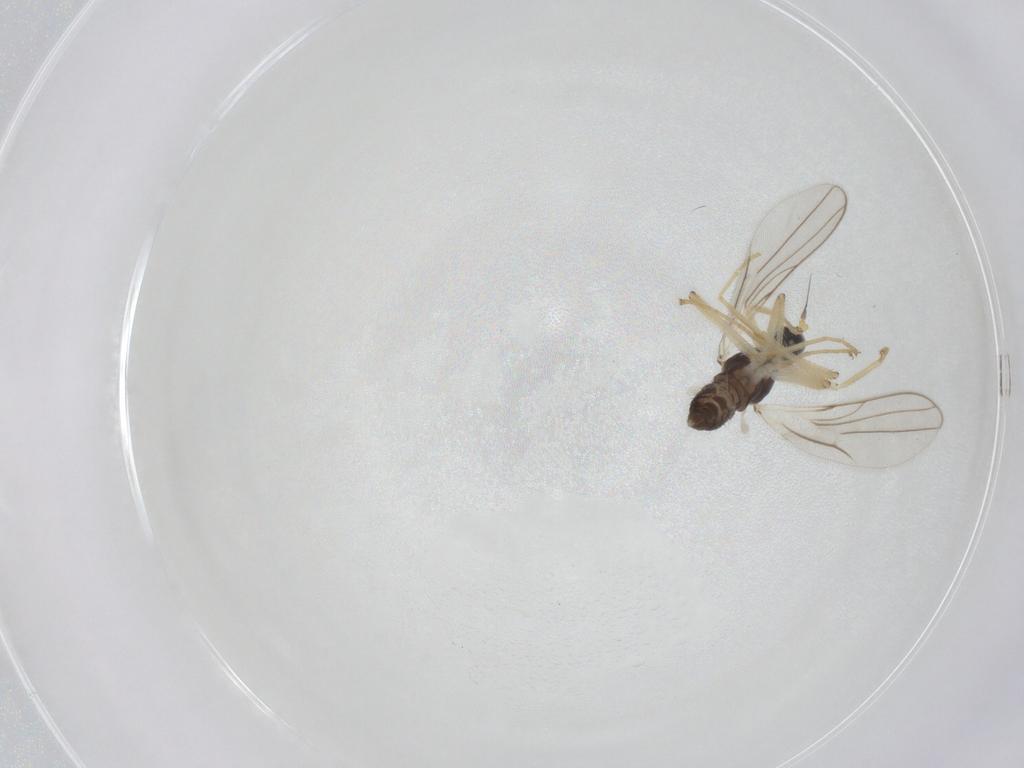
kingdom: Animalia
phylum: Arthropoda
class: Insecta
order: Diptera
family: Hybotidae
